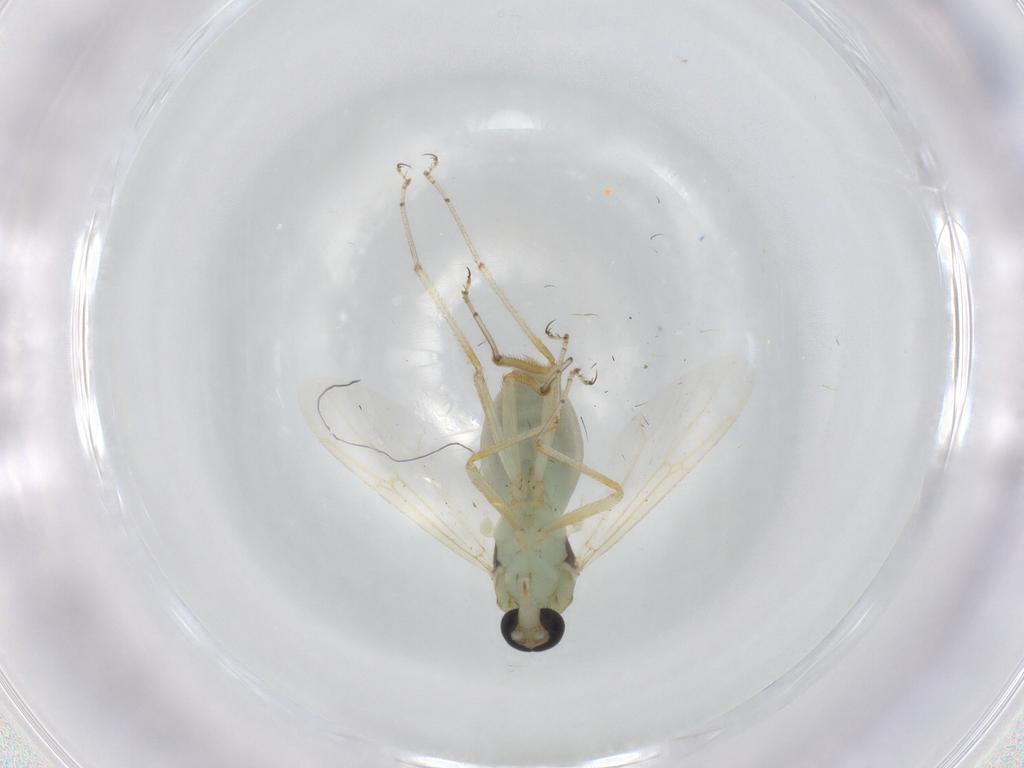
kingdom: Animalia
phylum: Arthropoda
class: Insecta
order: Diptera
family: Psychodidae
